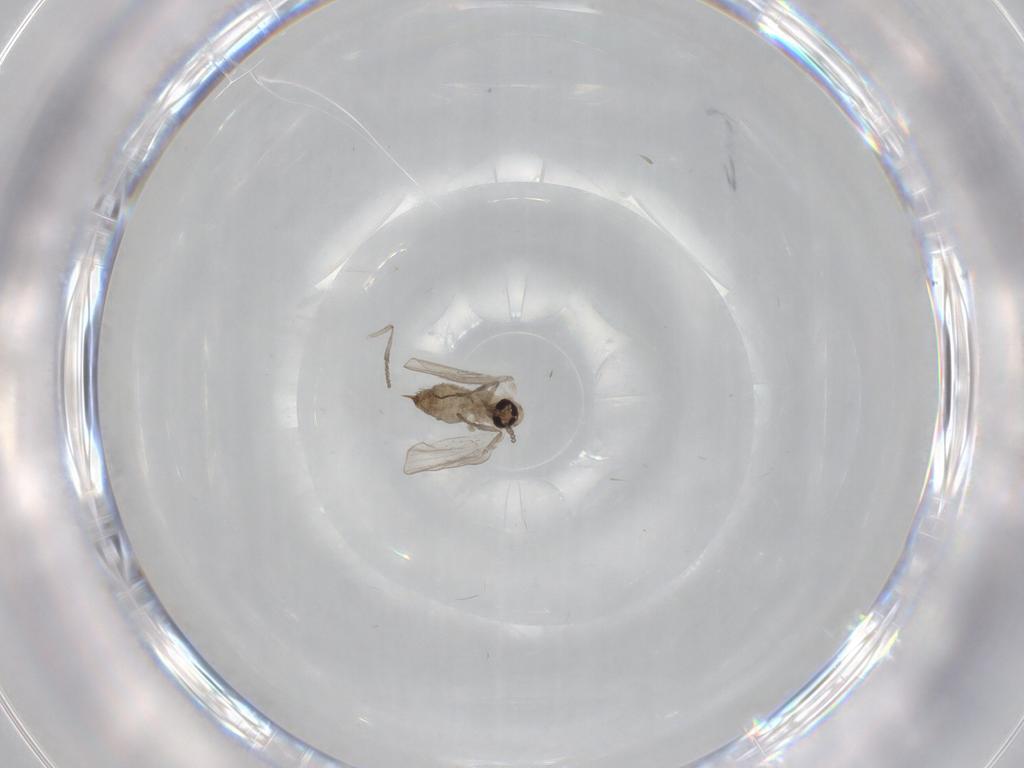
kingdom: Animalia
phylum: Arthropoda
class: Insecta
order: Diptera
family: Psychodidae
